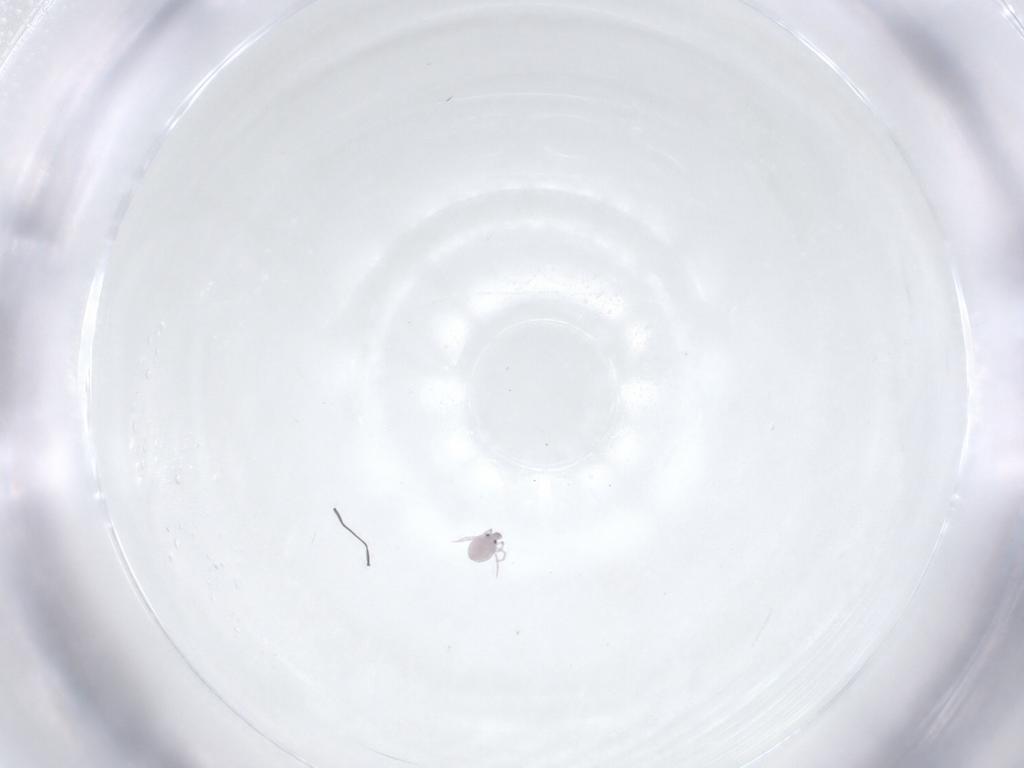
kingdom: Animalia
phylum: Arthropoda
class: Arachnida
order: Trombidiformes
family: Pionidae
